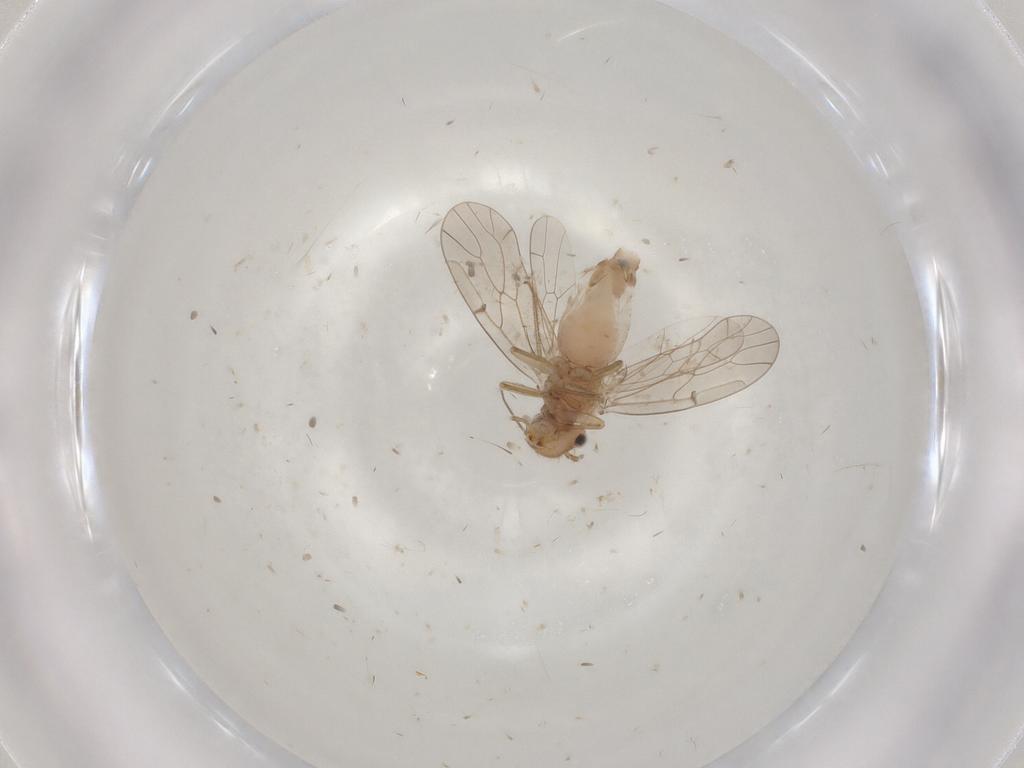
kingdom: Animalia
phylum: Arthropoda
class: Insecta
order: Psocodea
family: Ectopsocidae
